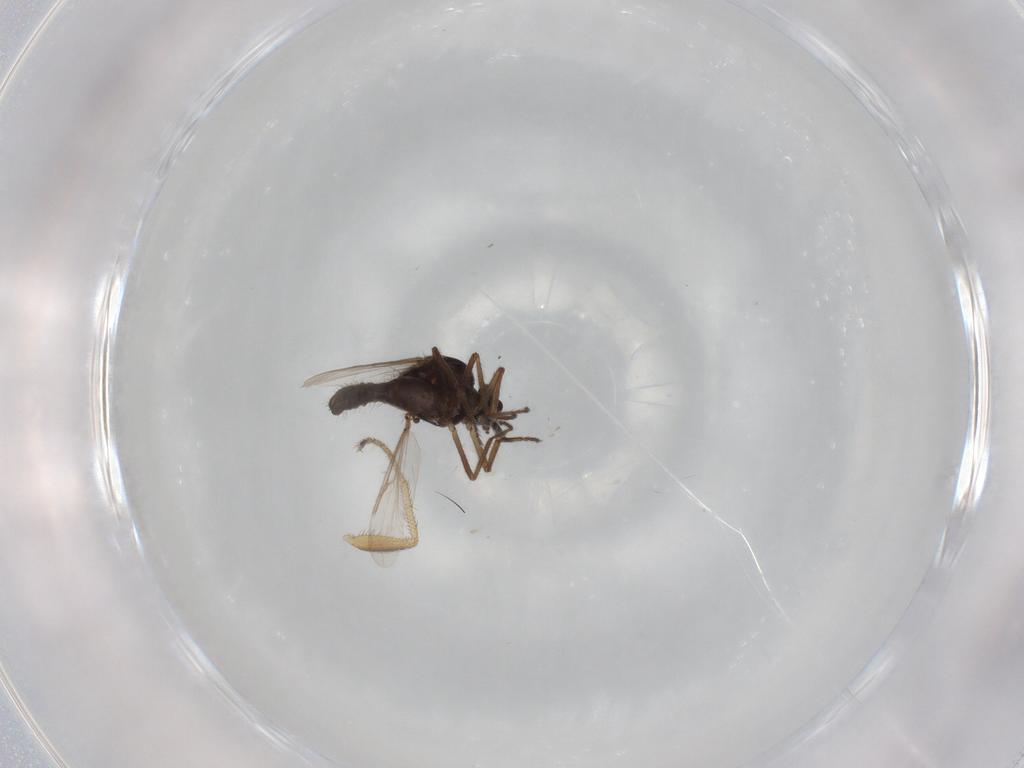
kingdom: Animalia
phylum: Arthropoda
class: Insecta
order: Diptera
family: Ceratopogonidae
